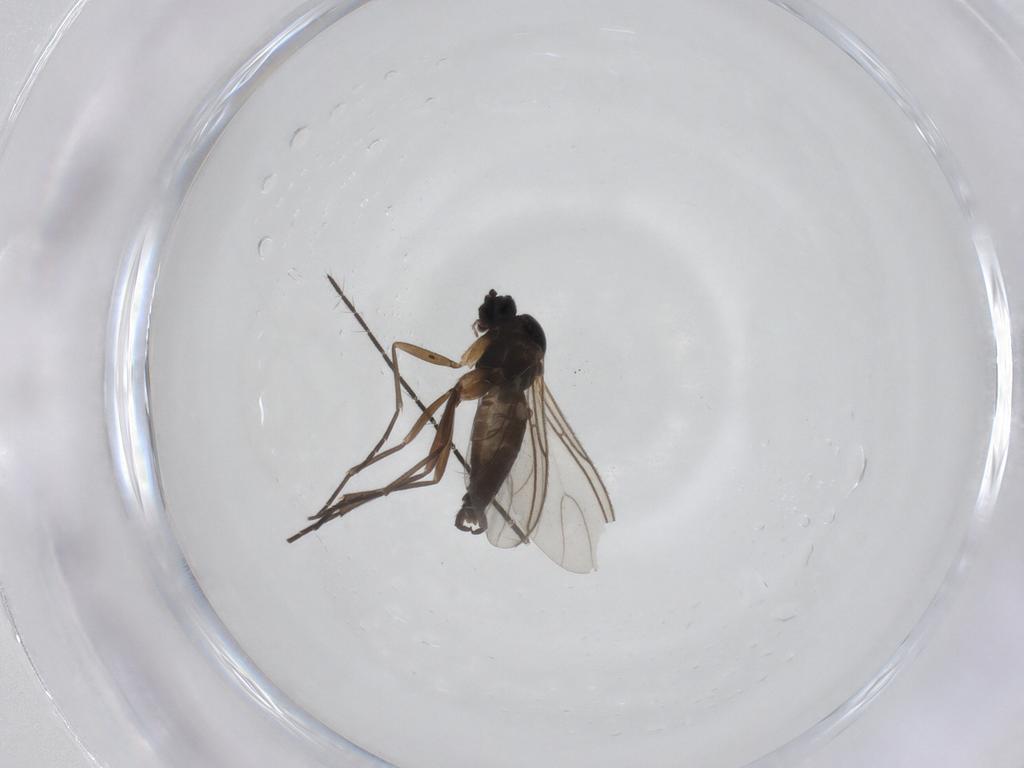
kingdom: Animalia
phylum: Arthropoda
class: Insecta
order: Diptera
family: Sciaridae
